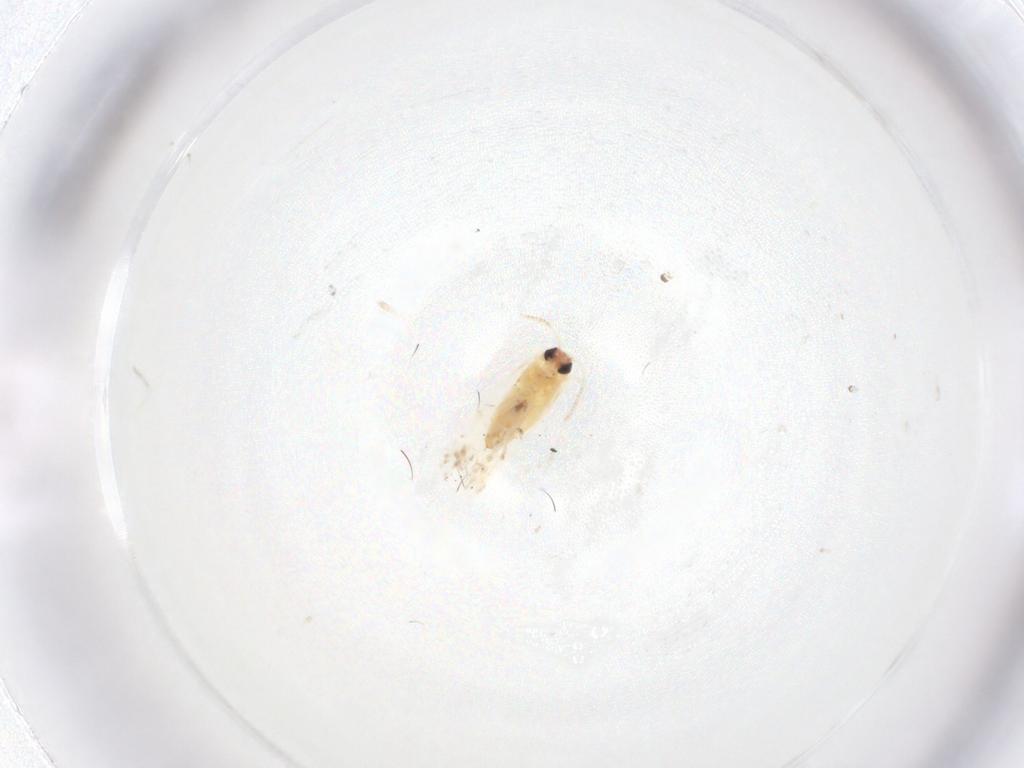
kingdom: Animalia
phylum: Arthropoda
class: Insecta
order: Lepidoptera
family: Gelechiidae
